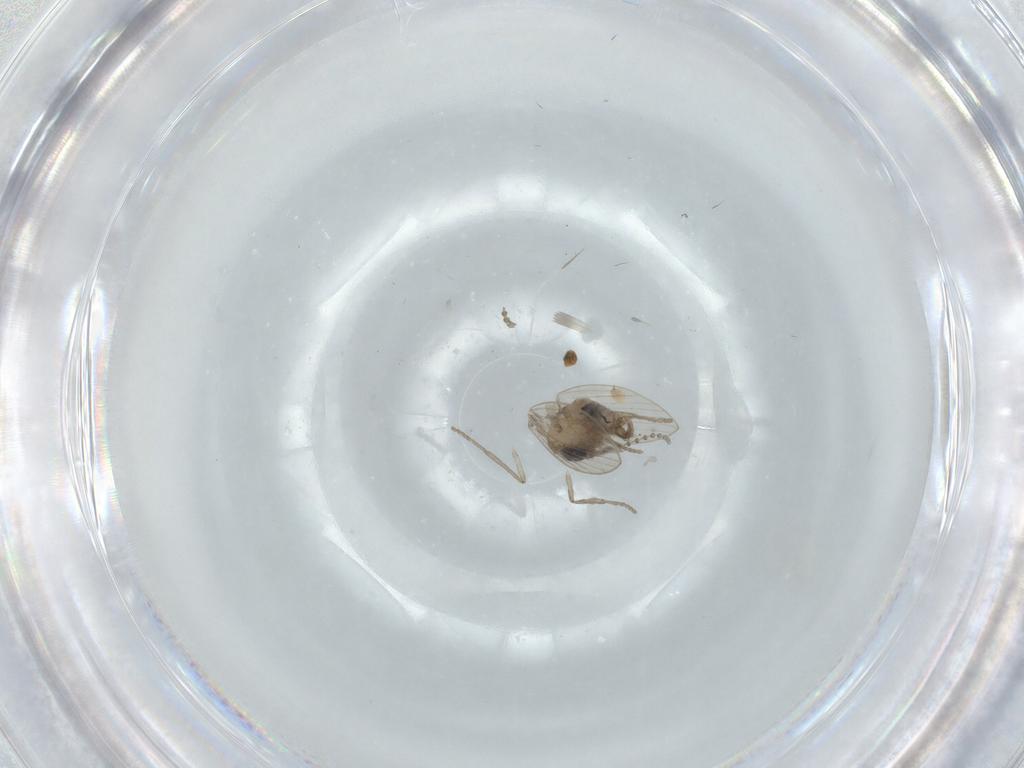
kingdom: Animalia
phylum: Arthropoda
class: Insecta
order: Diptera
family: Psychodidae
